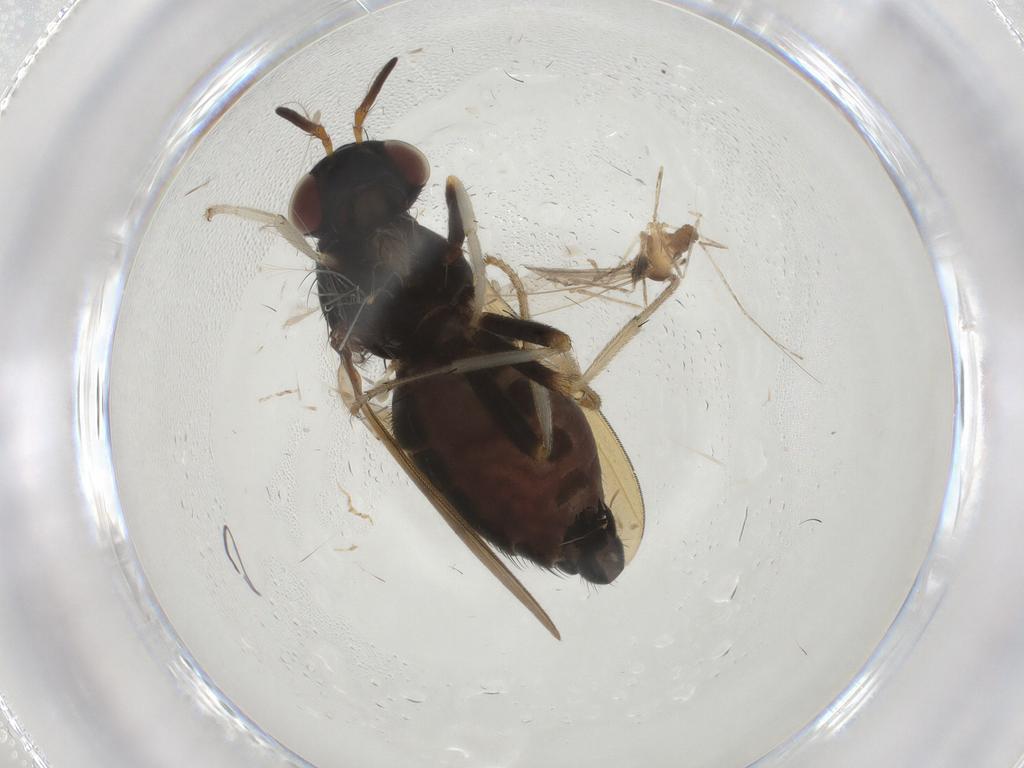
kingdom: Animalia
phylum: Arthropoda
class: Insecta
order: Diptera
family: Lauxaniidae
